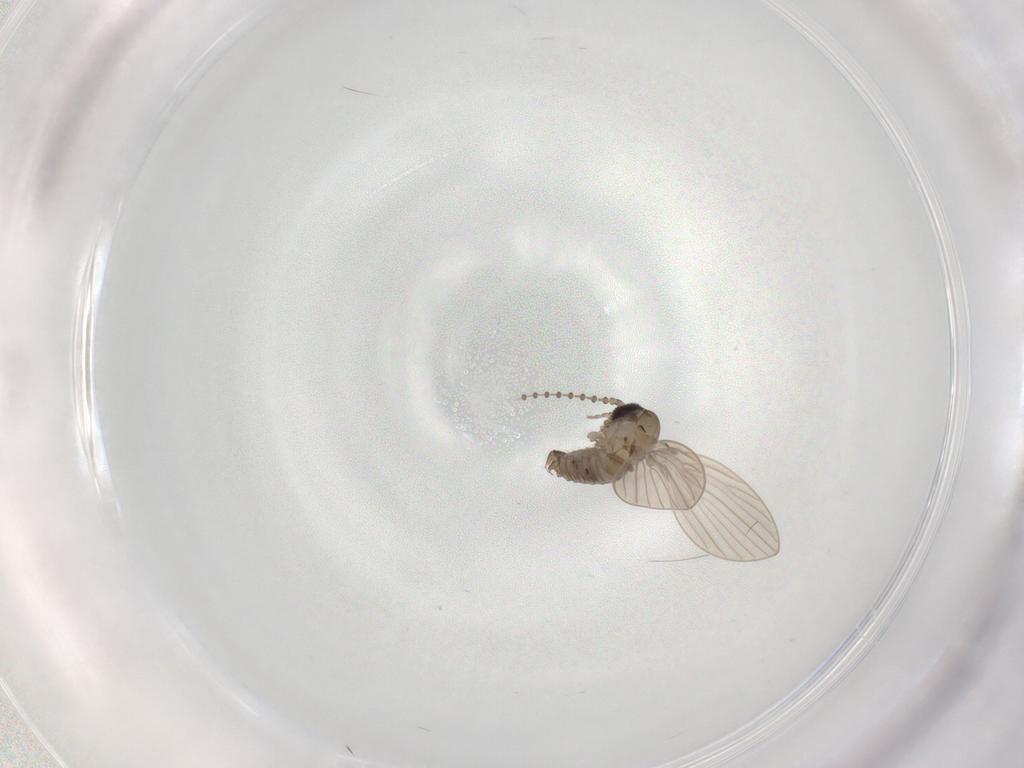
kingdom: Animalia
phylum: Arthropoda
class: Insecta
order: Diptera
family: Psychodidae
